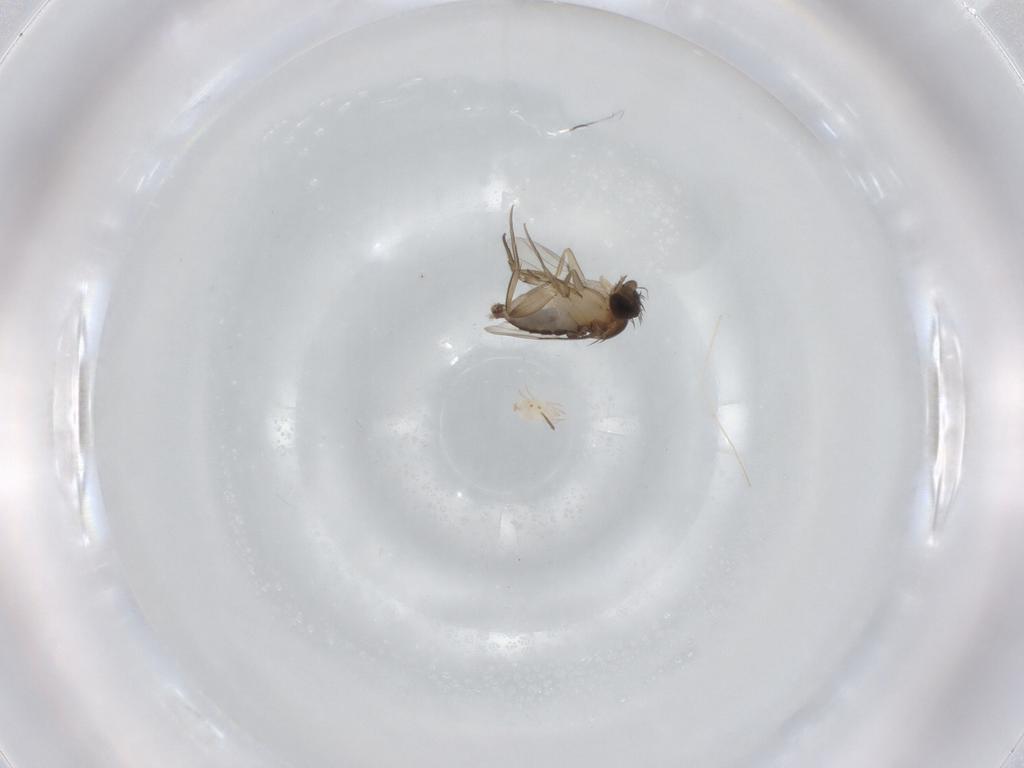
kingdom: Animalia
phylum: Arthropoda
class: Insecta
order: Diptera
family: Phoridae
